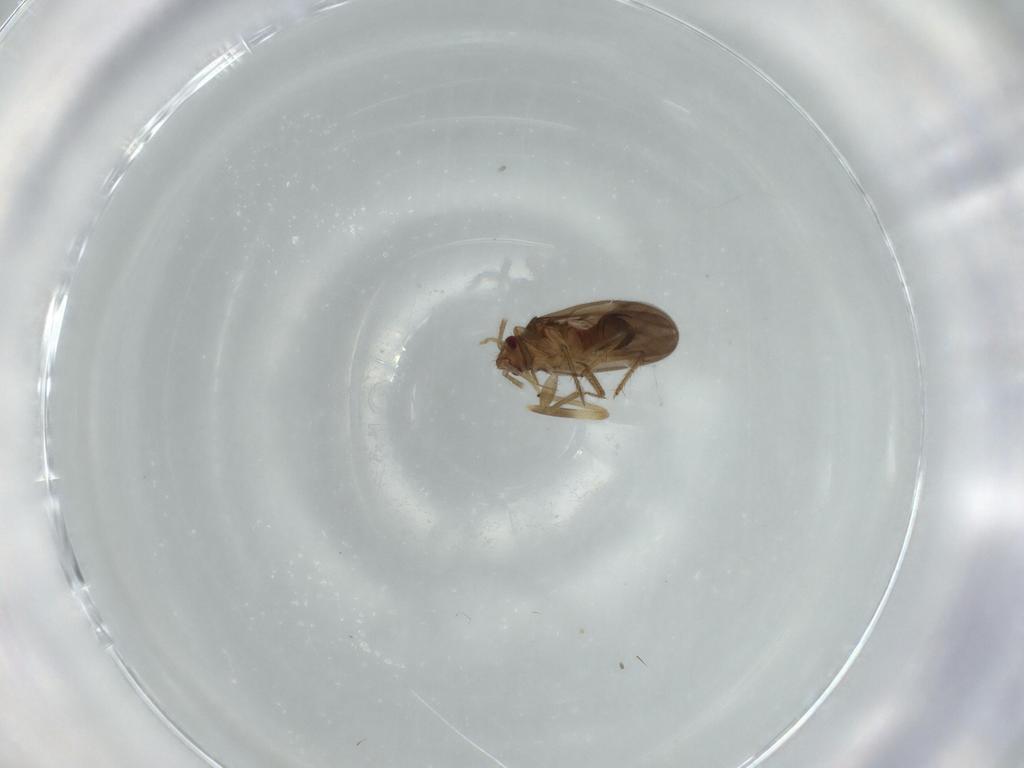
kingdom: Animalia
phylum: Arthropoda
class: Insecta
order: Hemiptera
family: Ceratocombidae
